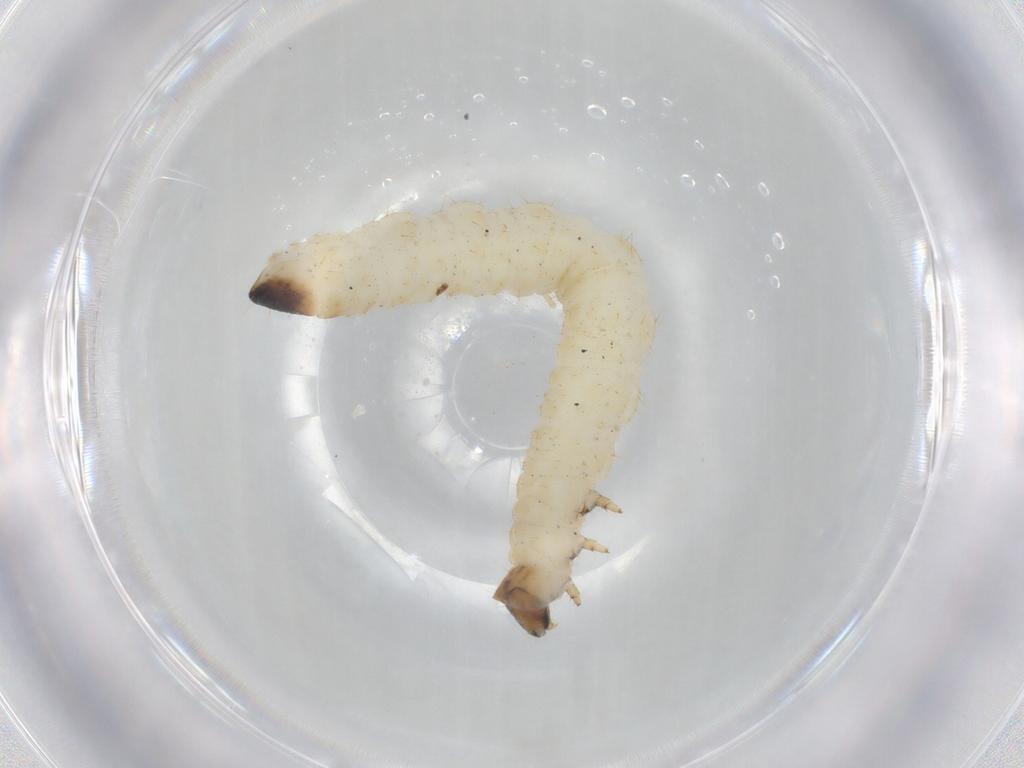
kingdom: Animalia
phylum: Arthropoda
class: Insecta
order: Coleoptera
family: Chrysomelidae
